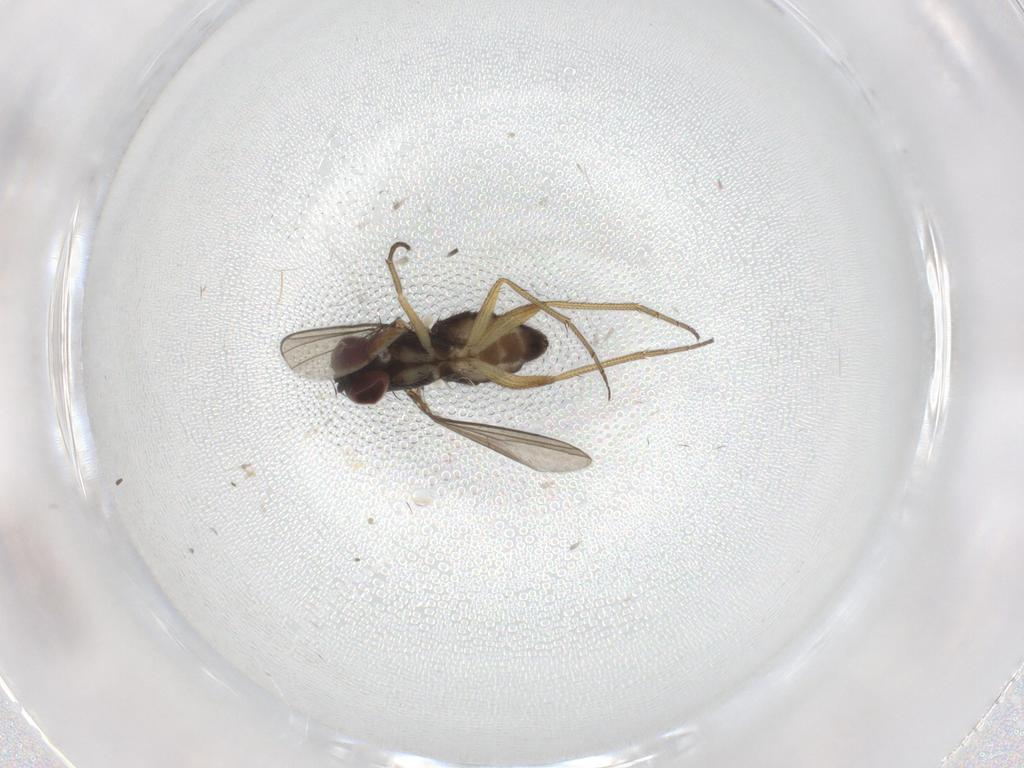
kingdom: Animalia
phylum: Arthropoda
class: Insecta
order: Diptera
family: Dolichopodidae
